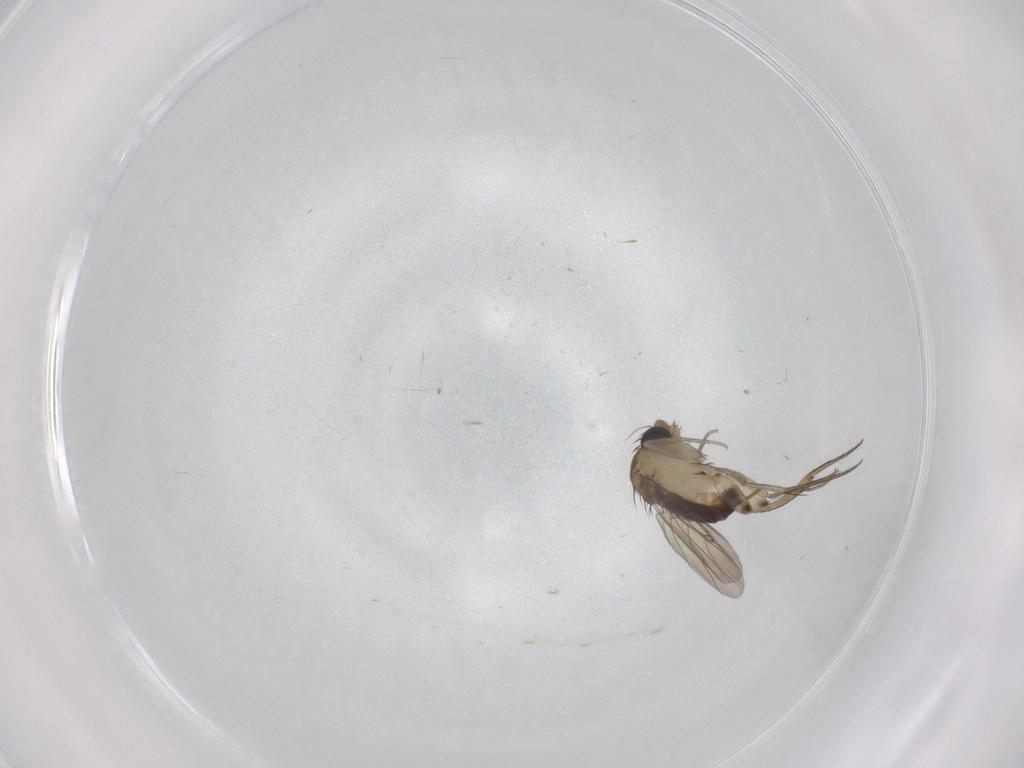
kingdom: Animalia
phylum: Arthropoda
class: Insecta
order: Diptera
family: Phoridae
